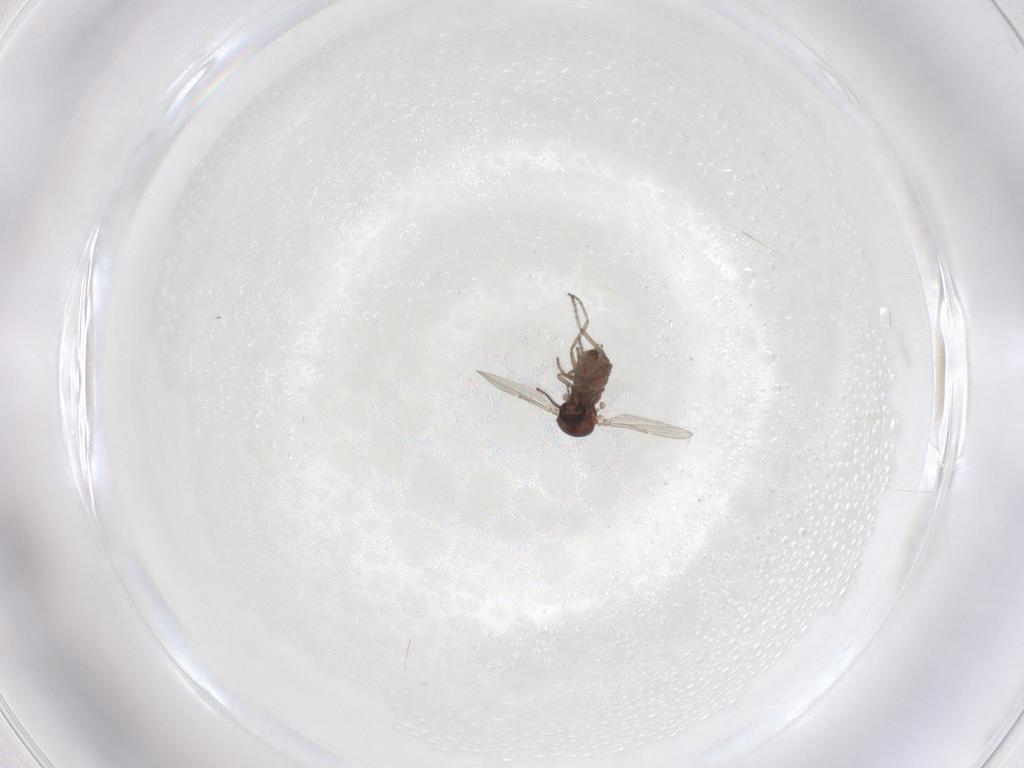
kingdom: Animalia
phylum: Arthropoda
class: Insecta
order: Diptera
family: Ceratopogonidae
